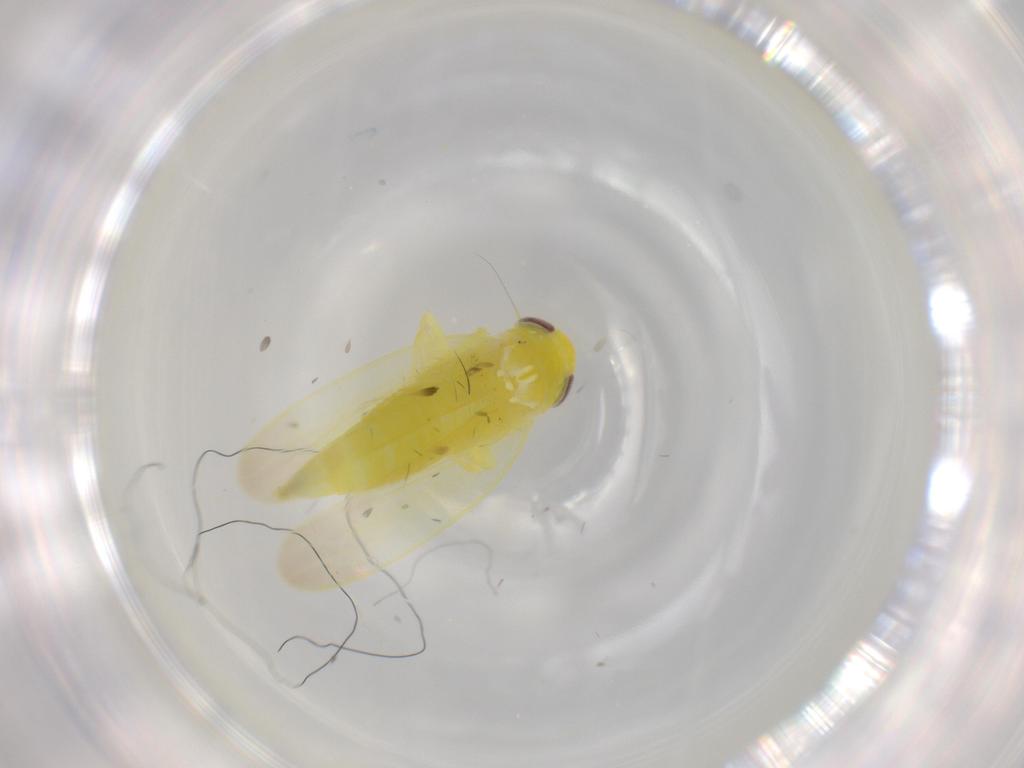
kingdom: Animalia
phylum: Arthropoda
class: Insecta
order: Hemiptera
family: Cicadellidae
